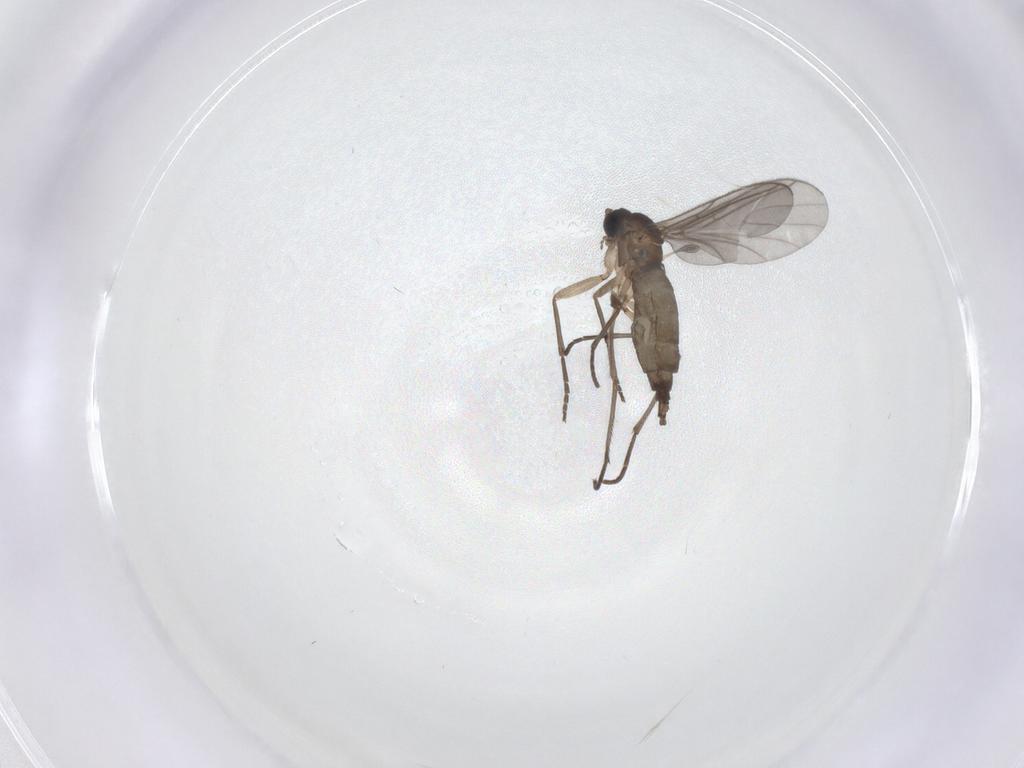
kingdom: Animalia
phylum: Arthropoda
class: Insecta
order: Diptera
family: Sciaridae
